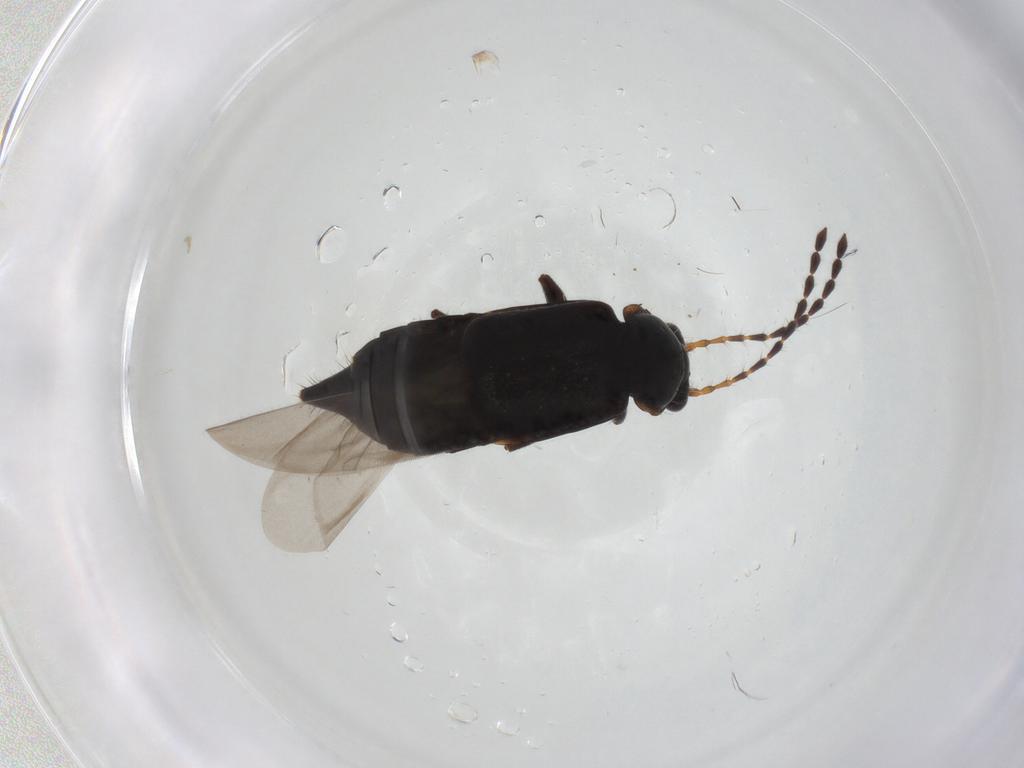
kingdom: Animalia
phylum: Arthropoda
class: Insecta
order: Coleoptera
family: Staphylinidae
